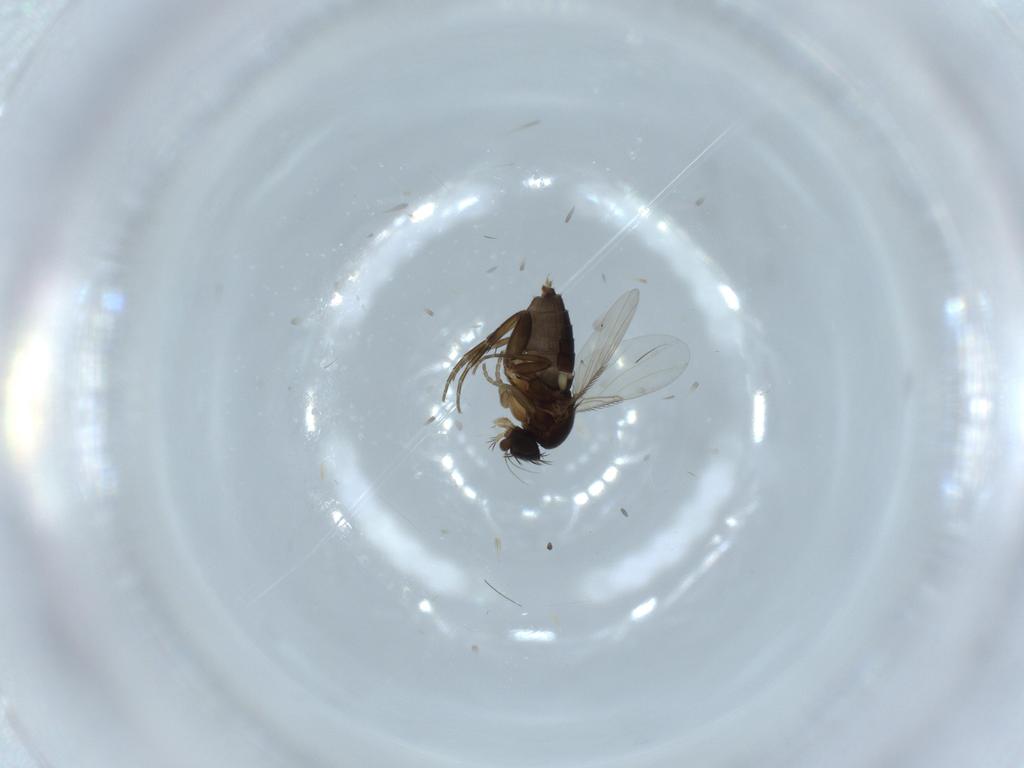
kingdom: Animalia
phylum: Arthropoda
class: Insecta
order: Diptera
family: Phoridae
